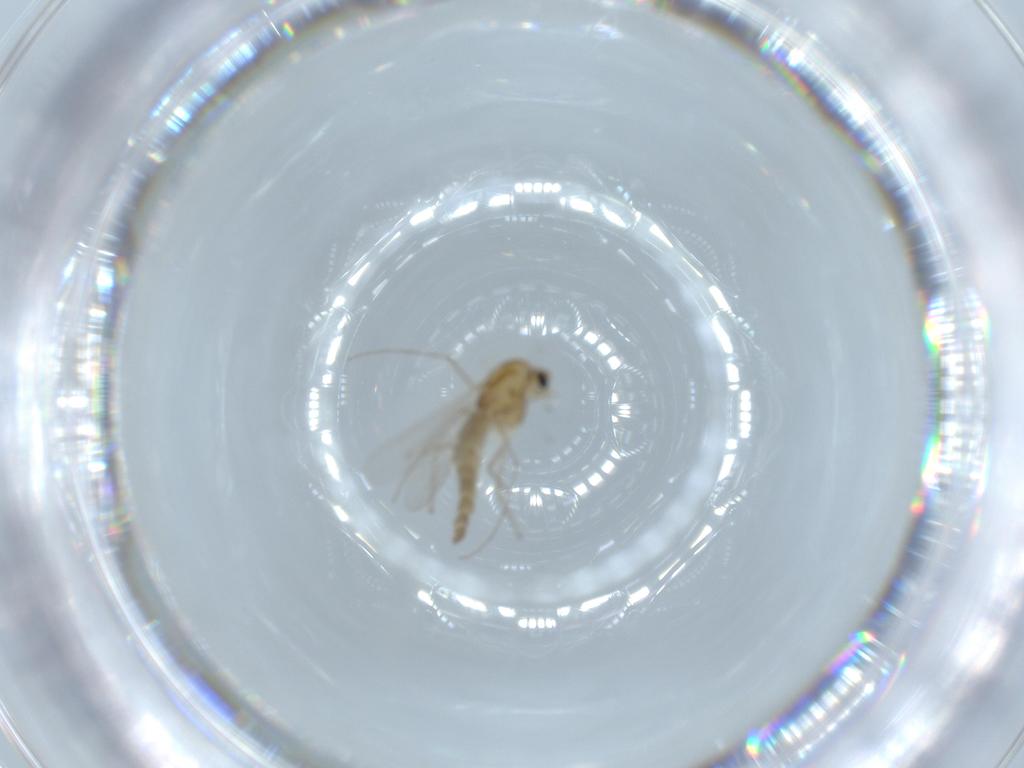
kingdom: Animalia
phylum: Arthropoda
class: Insecta
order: Diptera
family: Chironomidae
